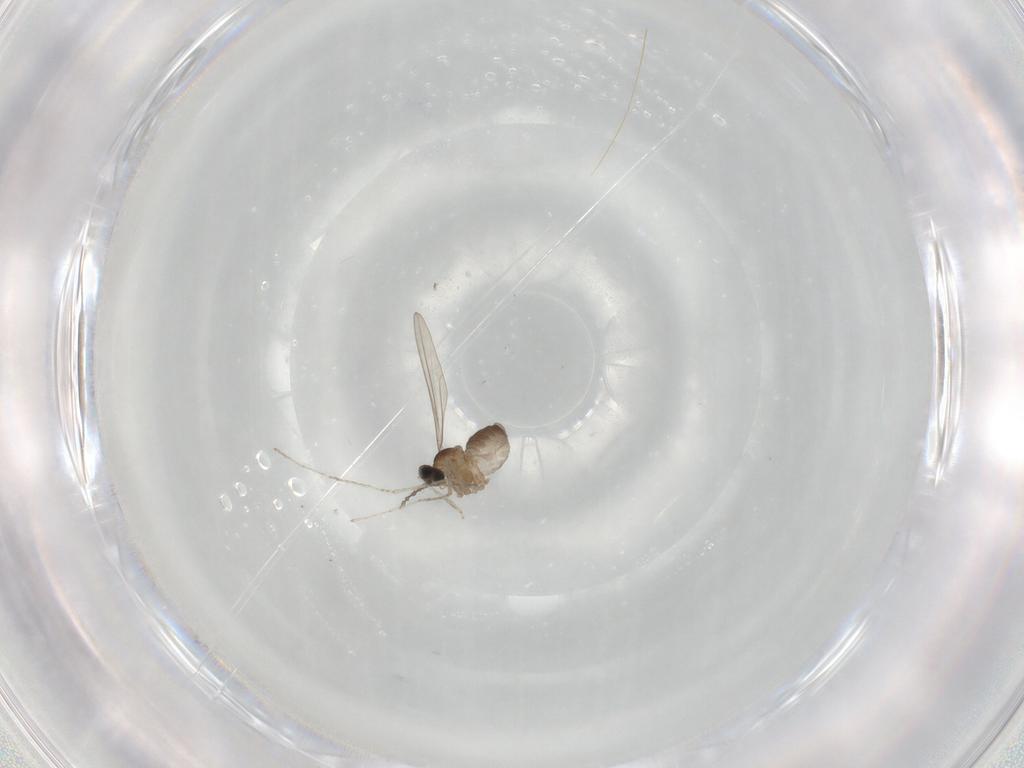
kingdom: Animalia
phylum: Arthropoda
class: Insecta
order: Diptera
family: Cecidomyiidae
